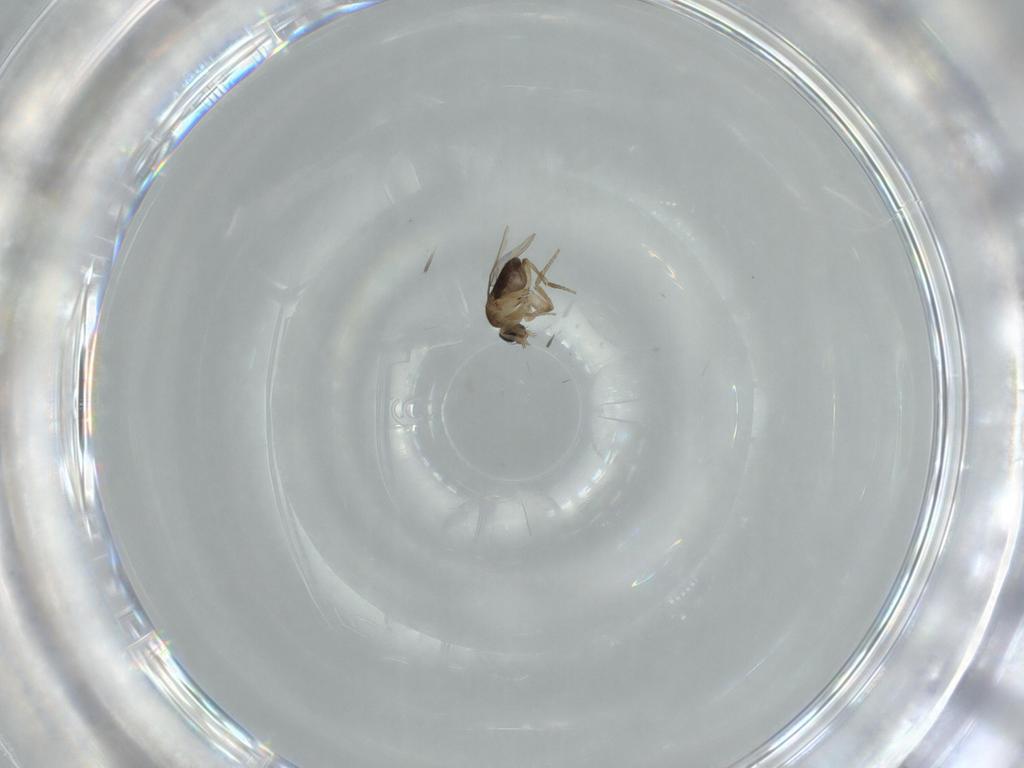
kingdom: Animalia
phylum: Arthropoda
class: Insecta
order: Diptera
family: Phoridae
